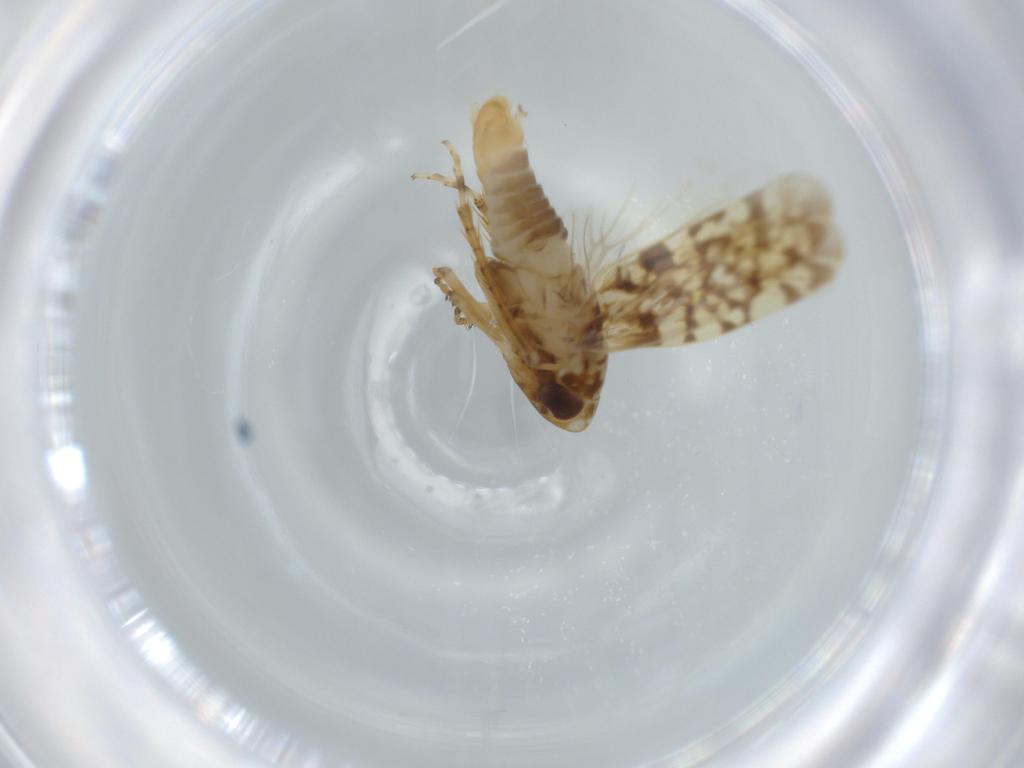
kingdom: Animalia
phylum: Arthropoda
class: Insecta
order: Hemiptera
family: Cicadellidae
